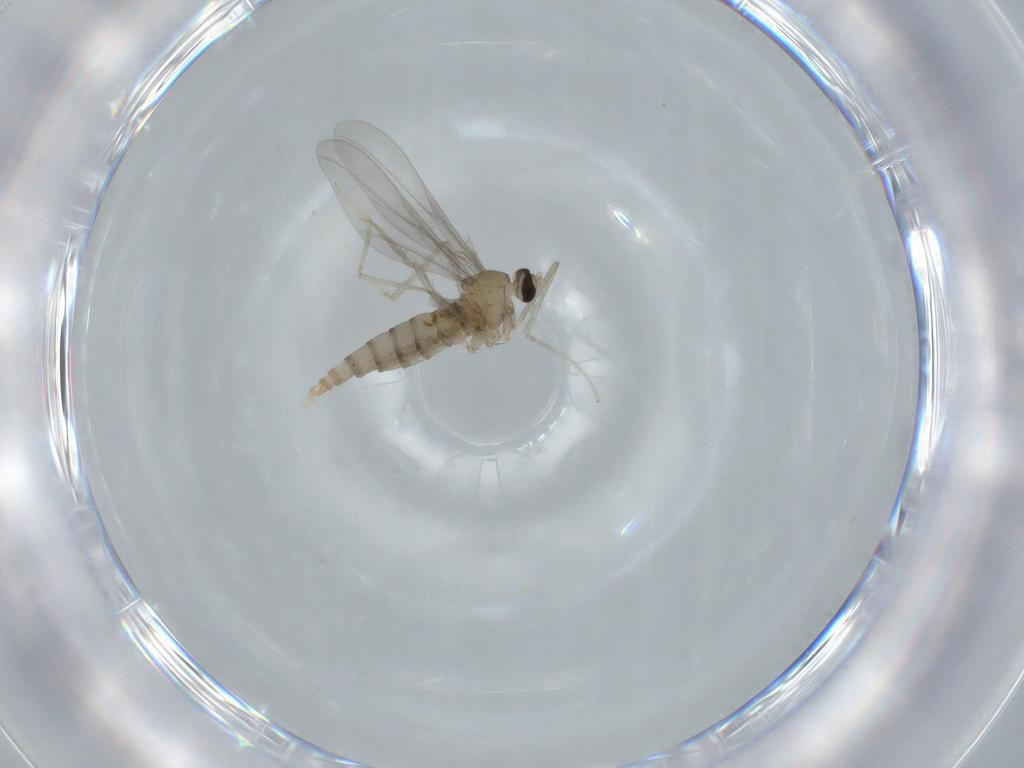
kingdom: Animalia
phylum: Arthropoda
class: Insecta
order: Diptera
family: Cecidomyiidae
